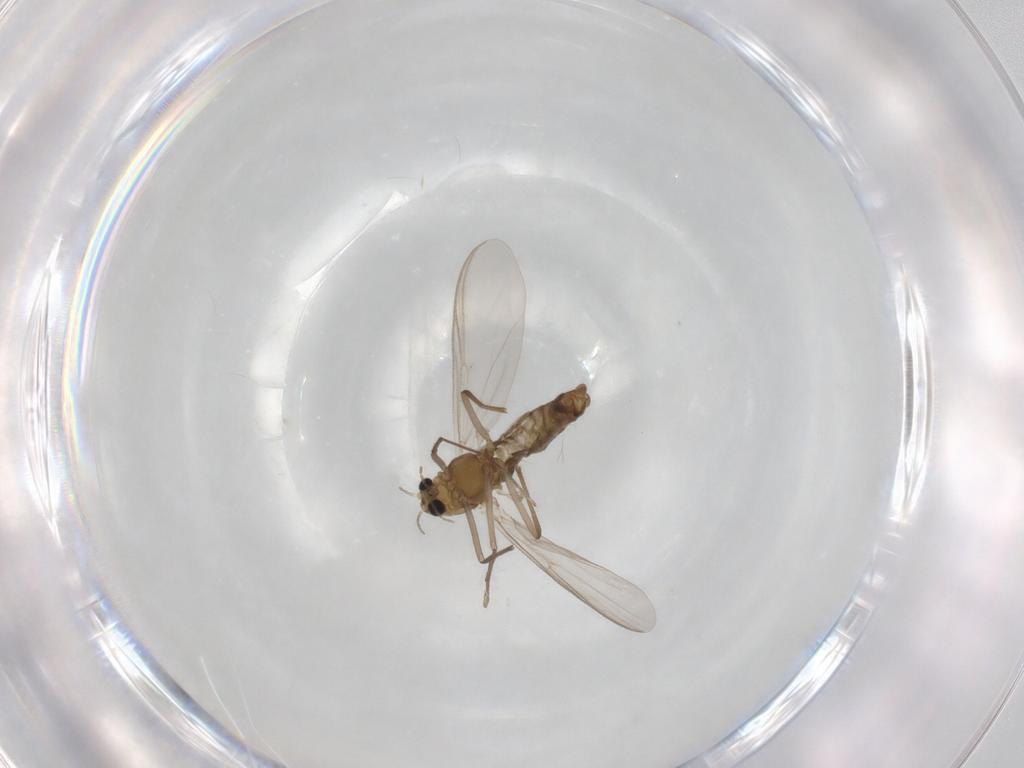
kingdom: Animalia
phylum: Arthropoda
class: Insecta
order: Diptera
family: Chironomidae
